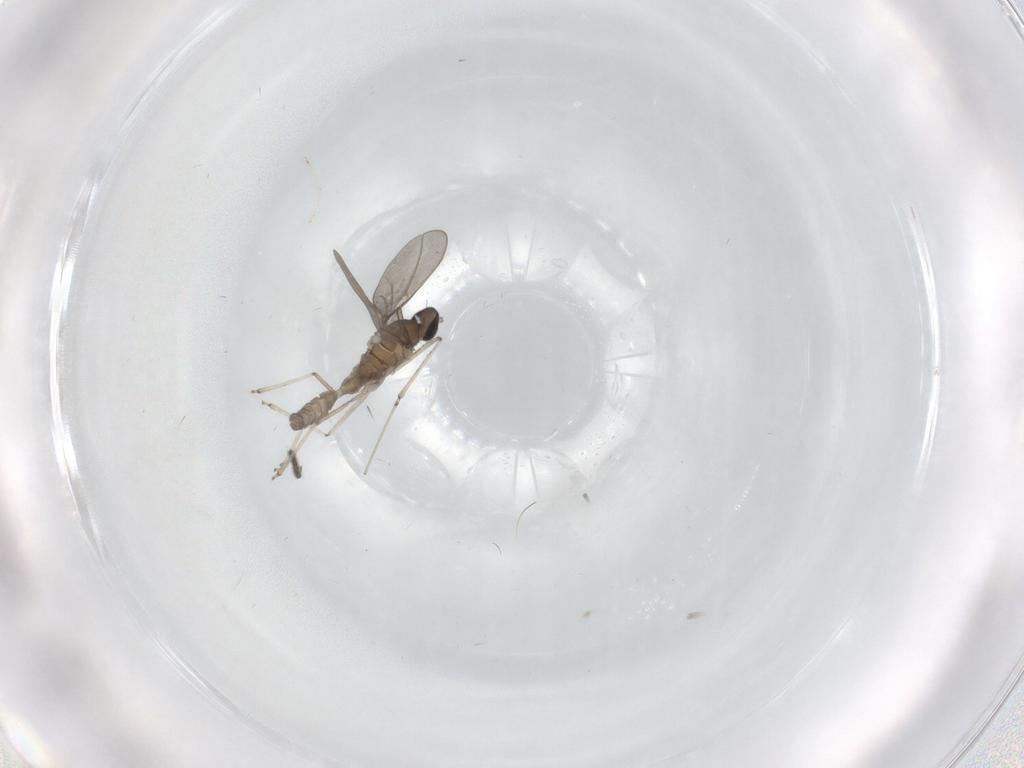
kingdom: Animalia
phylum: Arthropoda
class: Insecta
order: Diptera
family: Cecidomyiidae
